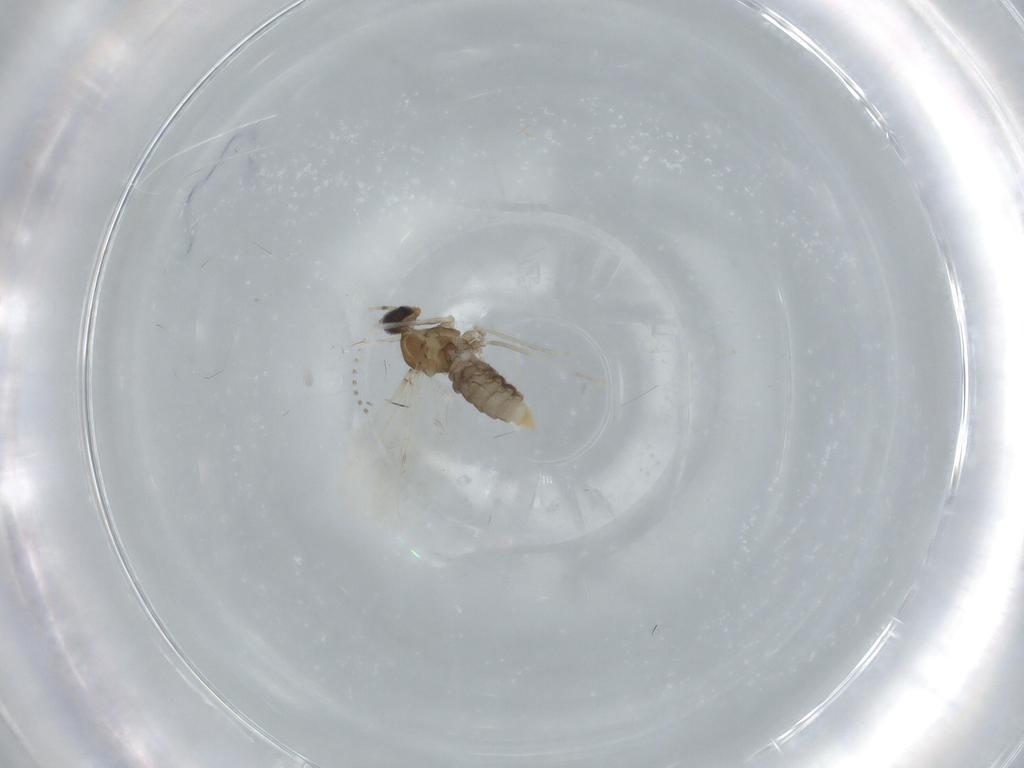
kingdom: Animalia
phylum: Arthropoda
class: Insecta
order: Diptera
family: Cecidomyiidae
